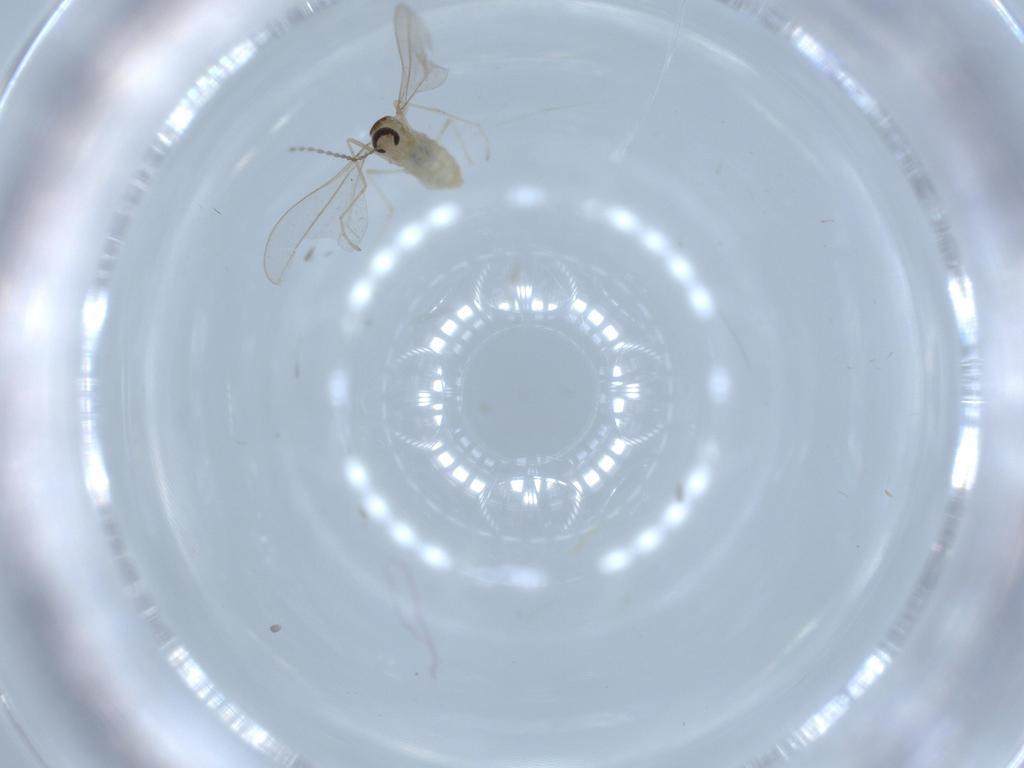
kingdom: Animalia
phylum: Arthropoda
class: Insecta
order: Diptera
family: Cecidomyiidae
